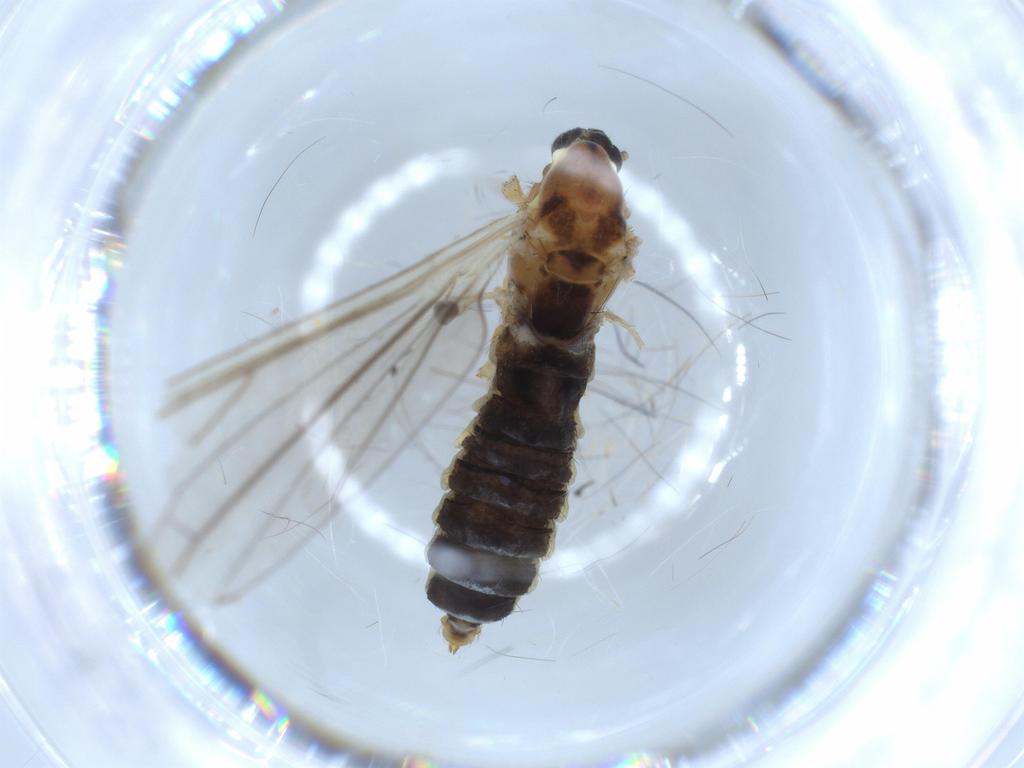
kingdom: Animalia
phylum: Arthropoda
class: Insecta
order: Diptera
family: Limoniidae
